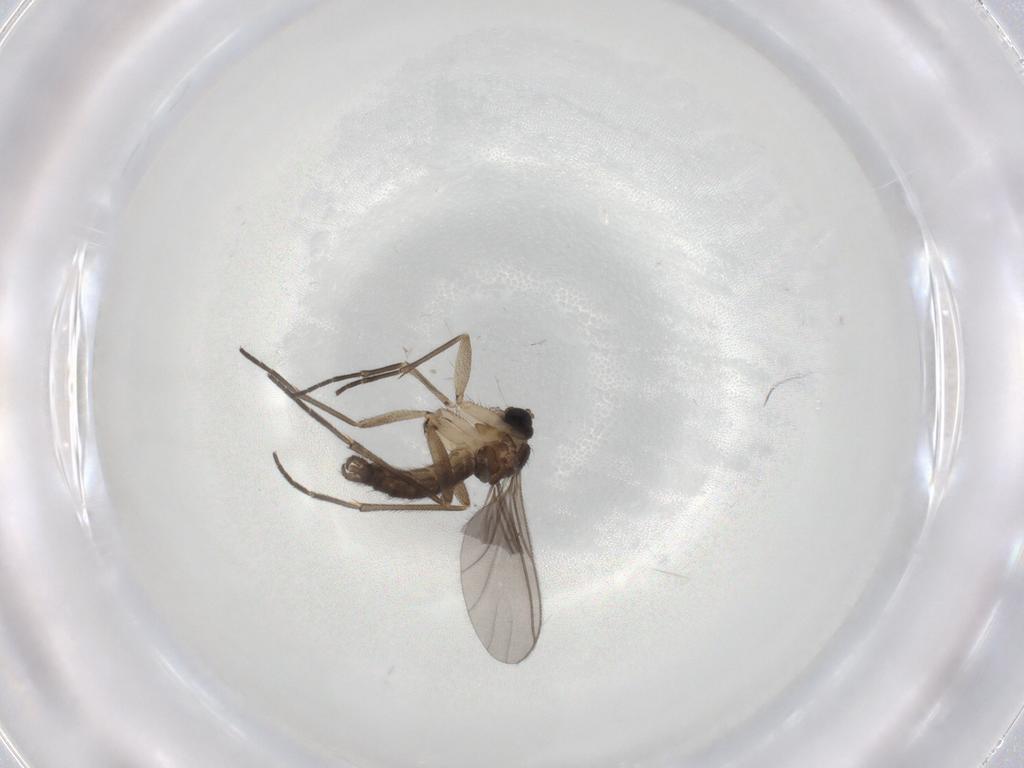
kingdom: Animalia
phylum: Arthropoda
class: Insecta
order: Diptera
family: Sciaridae
